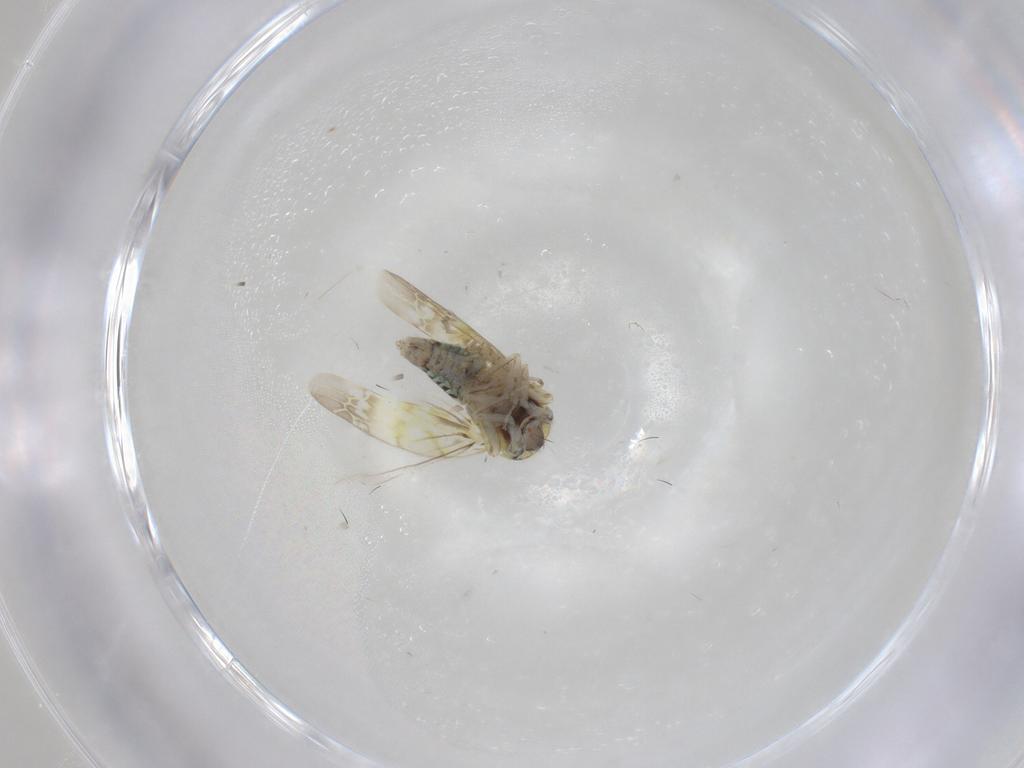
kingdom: Animalia
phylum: Arthropoda
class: Insecta
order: Hemiptera
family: Cicadellidae
